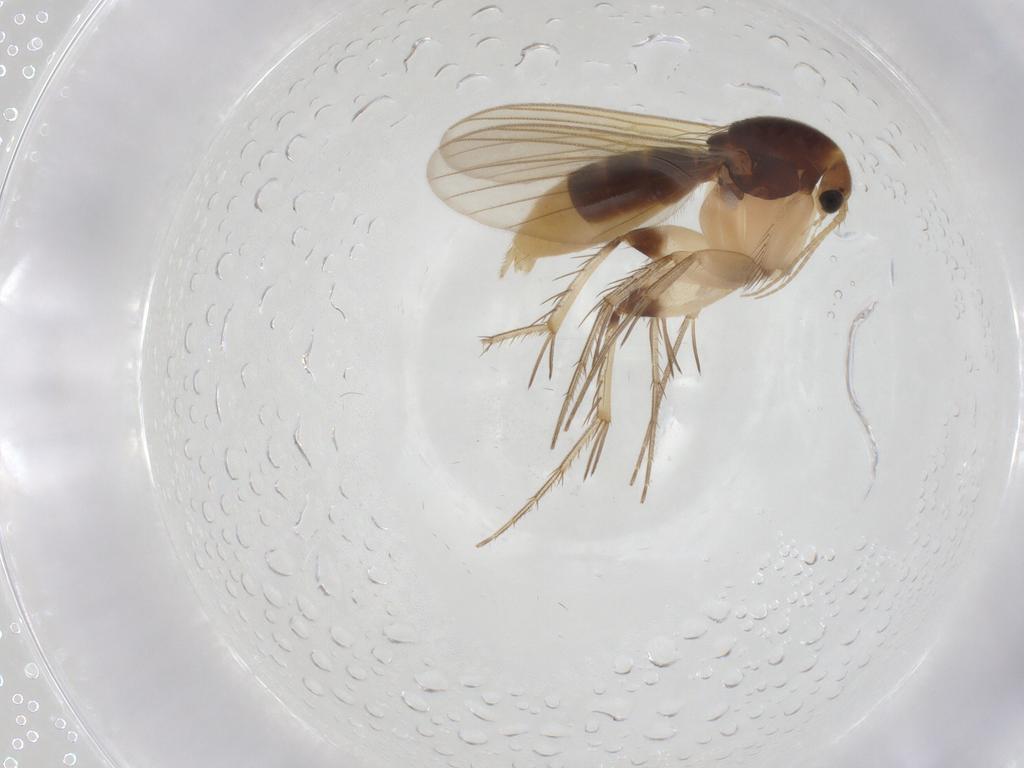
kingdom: Animalia
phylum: Arthropoda
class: Insecta
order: Diptera
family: Mycetophilidae
